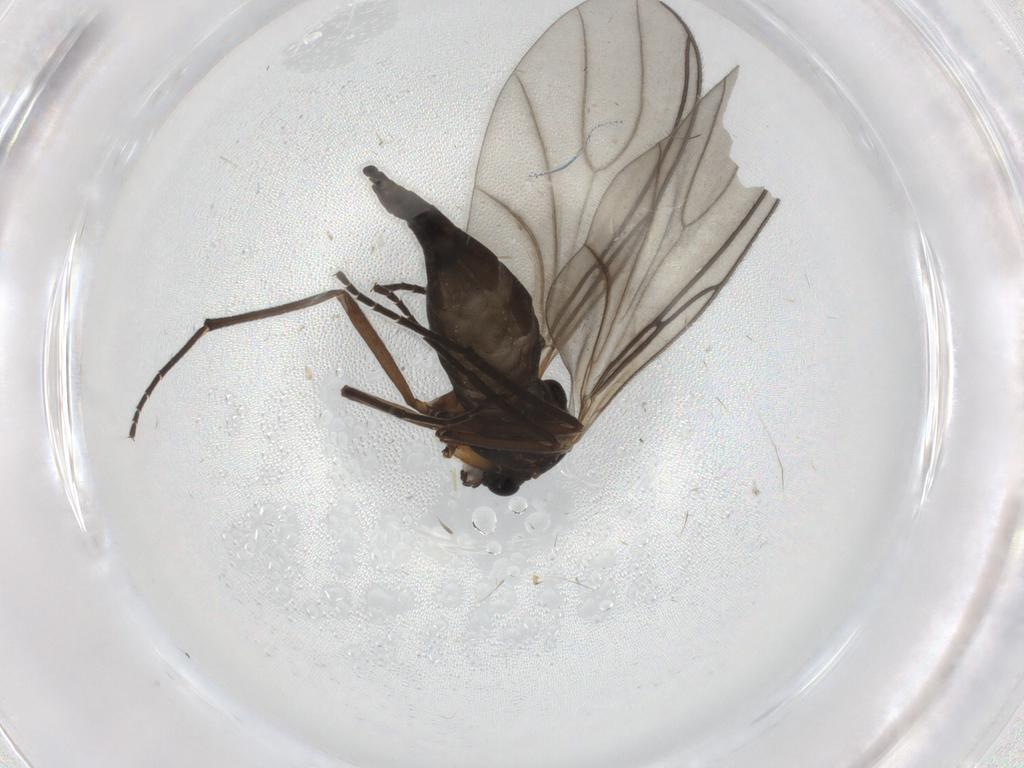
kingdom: Animalia
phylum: Arthropoda
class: Insecta
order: Diptera
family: Sciaridae
